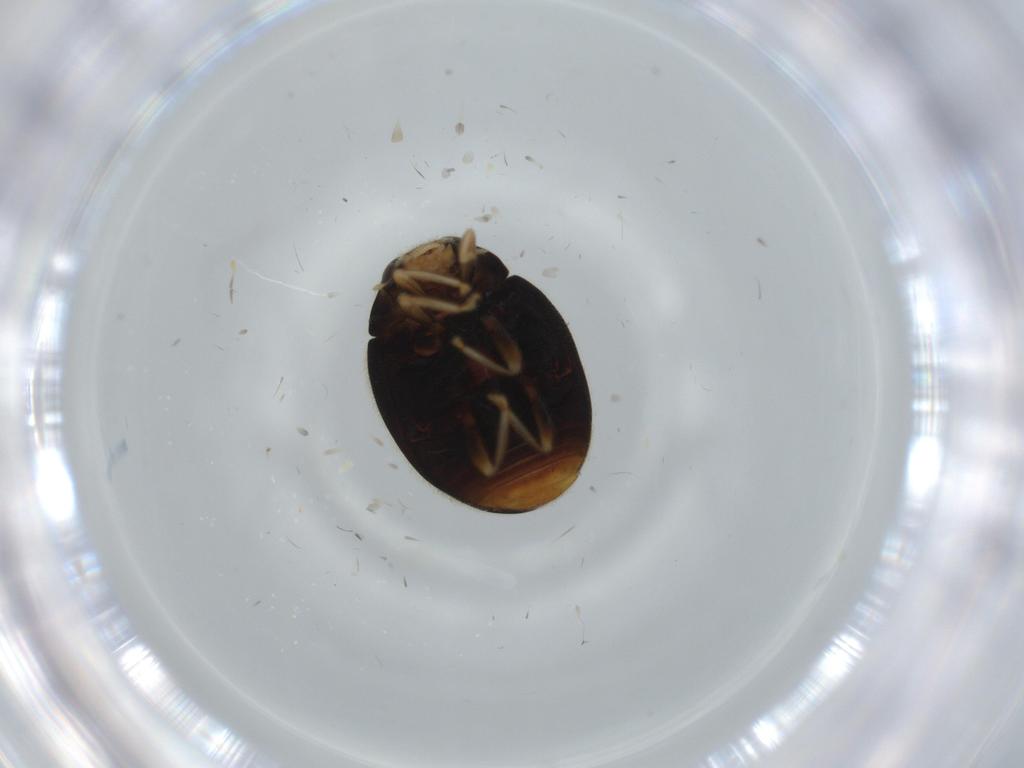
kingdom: Animalia
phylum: Arthropoda
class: Insecta
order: Coleoptera
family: Coccinellidae
